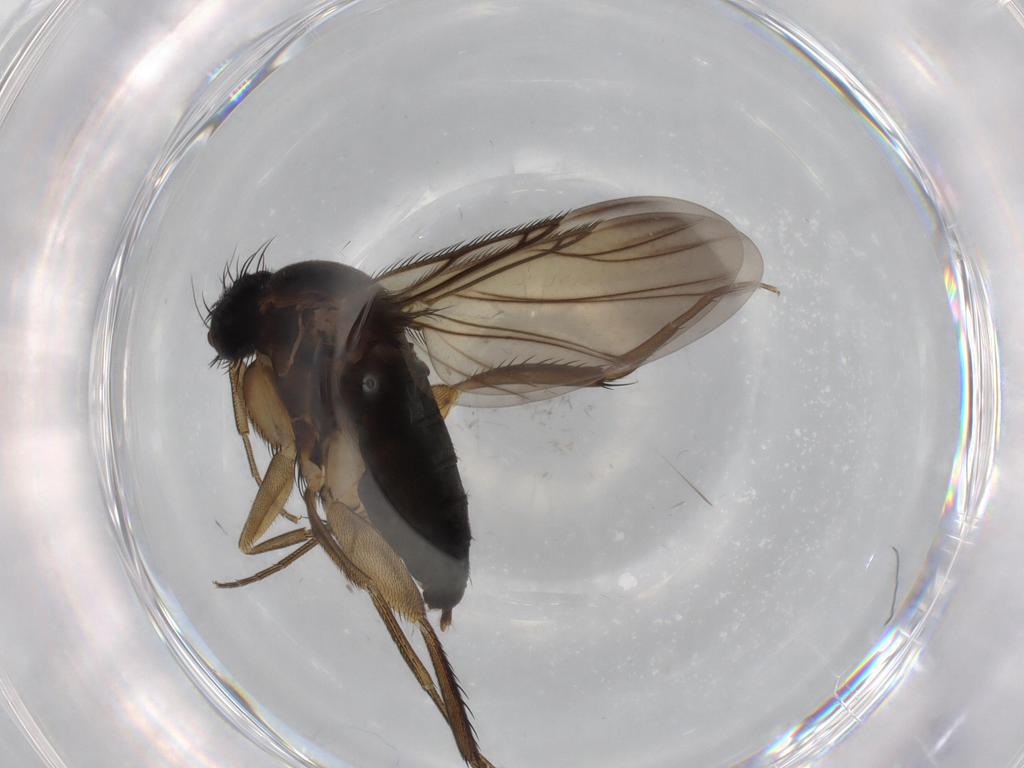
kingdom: Animalia
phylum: Arthropoda
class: Insecta
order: Diptera
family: Phoridae
